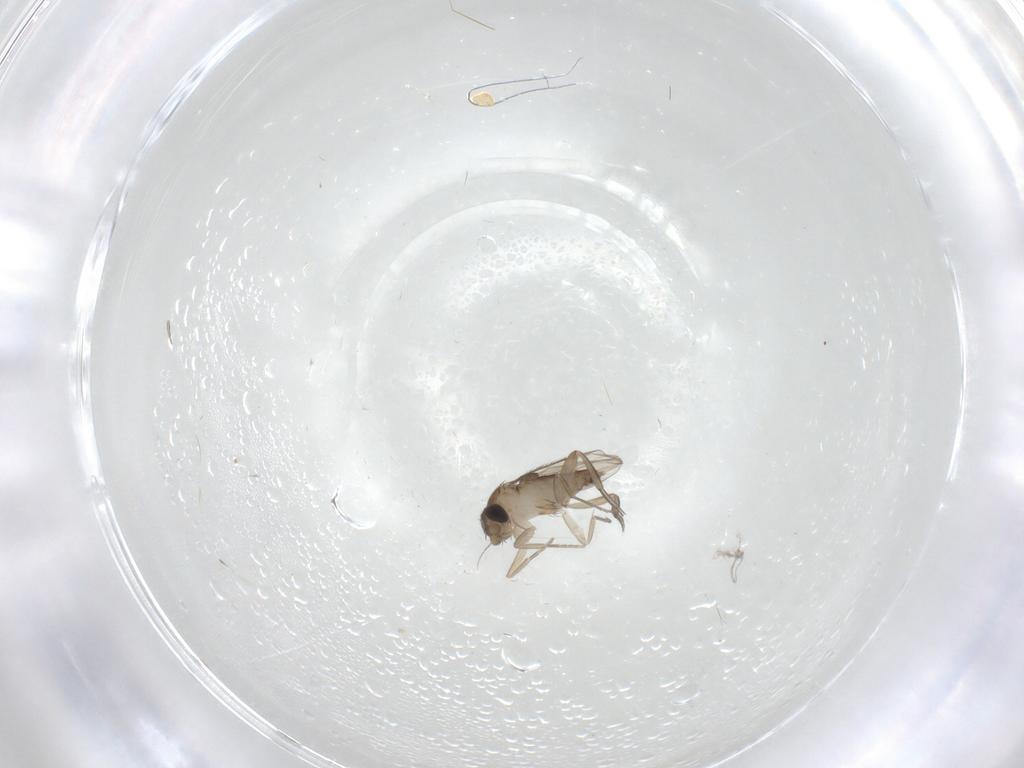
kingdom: Animalia
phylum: Arthropoda
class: Insecta
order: Diptera
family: Phoridae
